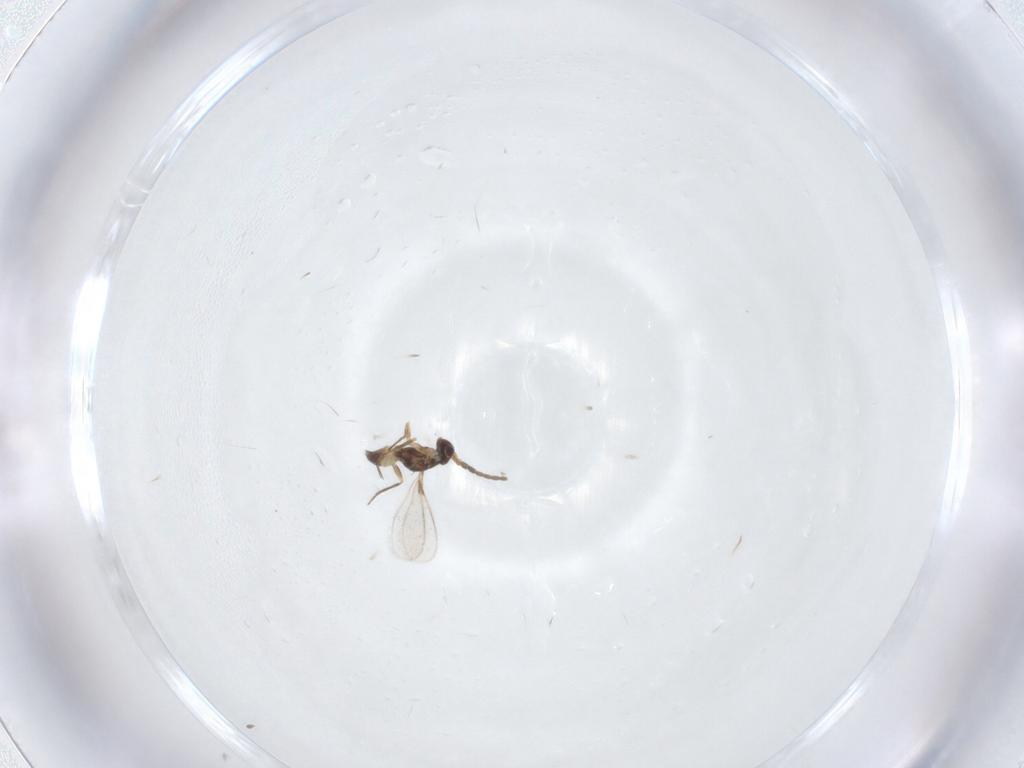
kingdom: Animalia
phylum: Arthropoda
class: Insecta
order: Hymenoptera
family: Mymaridae
